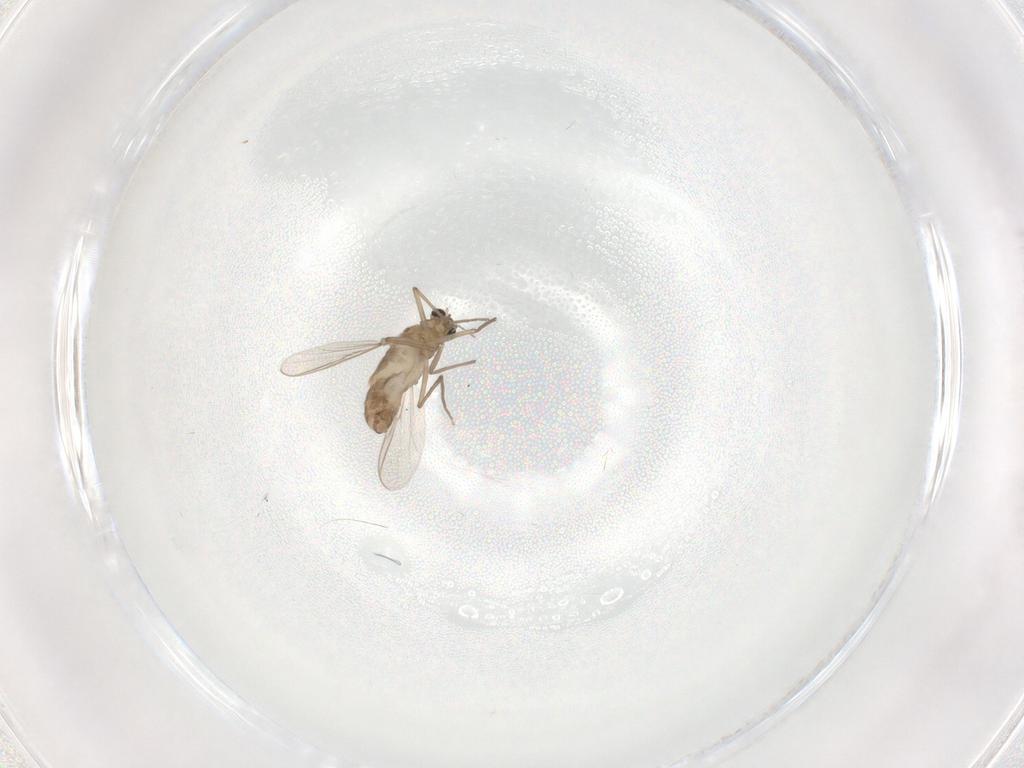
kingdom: Animalia
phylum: Arthropoda
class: Insecta
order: Diptera
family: Chironomidae
